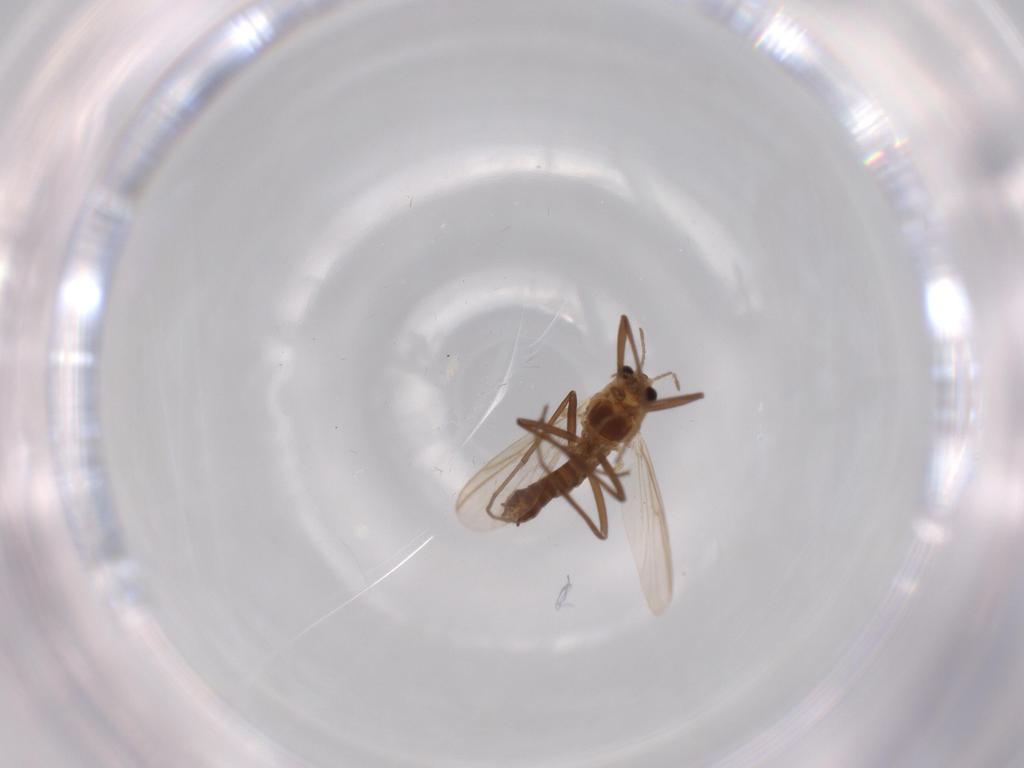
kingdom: Animalia
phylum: Arthropoda
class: Insecta
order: Diptera
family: Chironomidae
